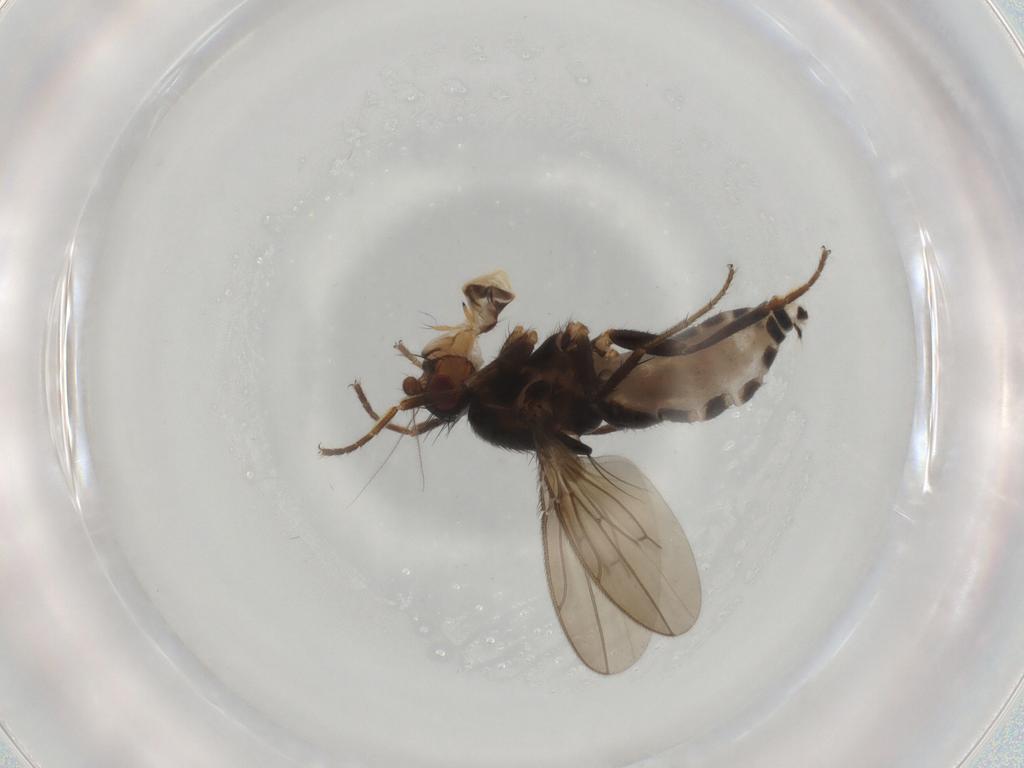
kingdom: Animalia
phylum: Arthropoda
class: Insecta
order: Diptera
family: Sphaeroceridae
